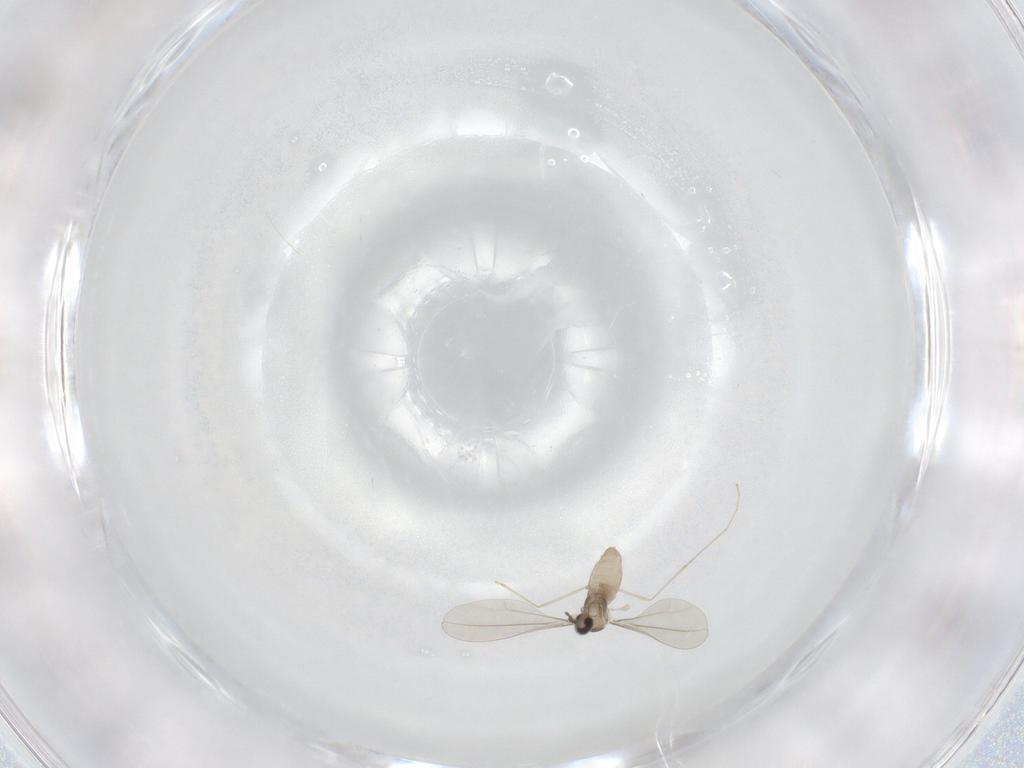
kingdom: Animalia
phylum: Arthropoda
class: Insecta
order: Diptera
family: Cecidomyiidae
